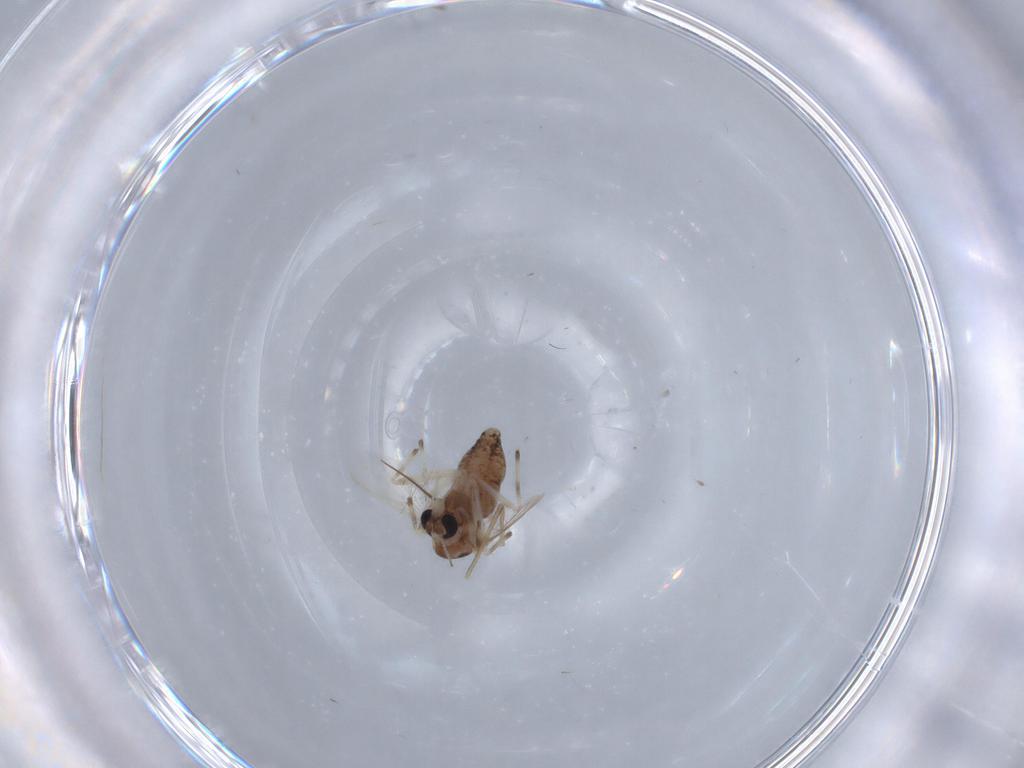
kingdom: Animalia
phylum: Arthropoda
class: Insecta
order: Diptera
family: Chironomidae
